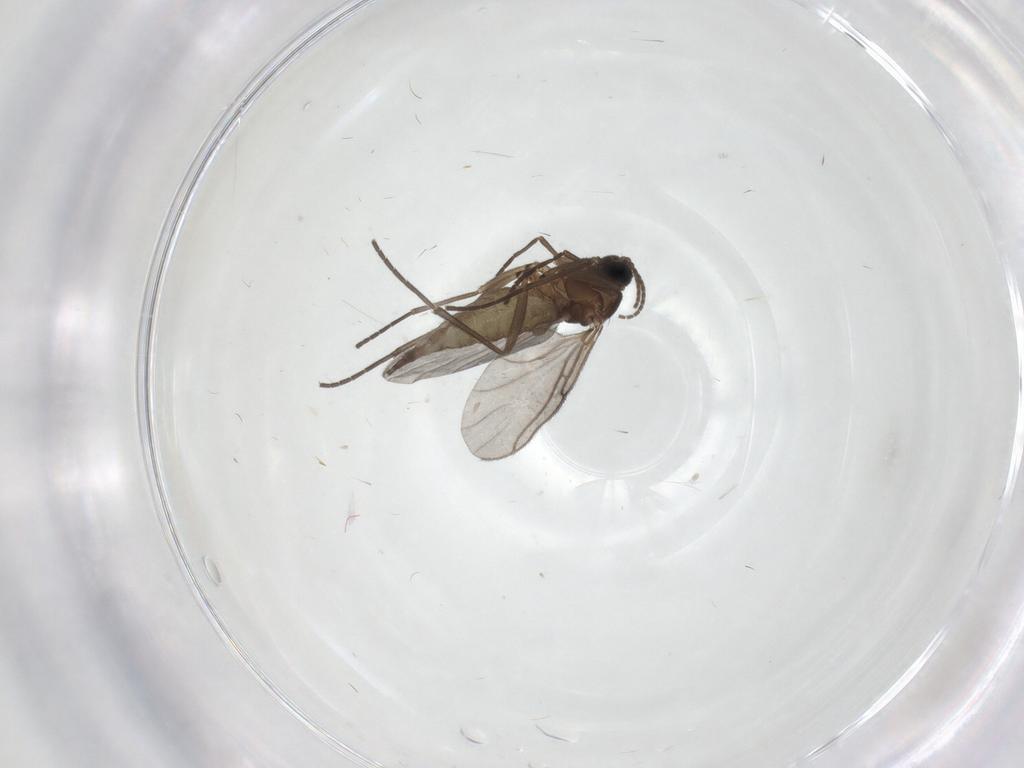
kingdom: Animalia
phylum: Arthropoda
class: Insecta
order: Diptera
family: Sciaridae
